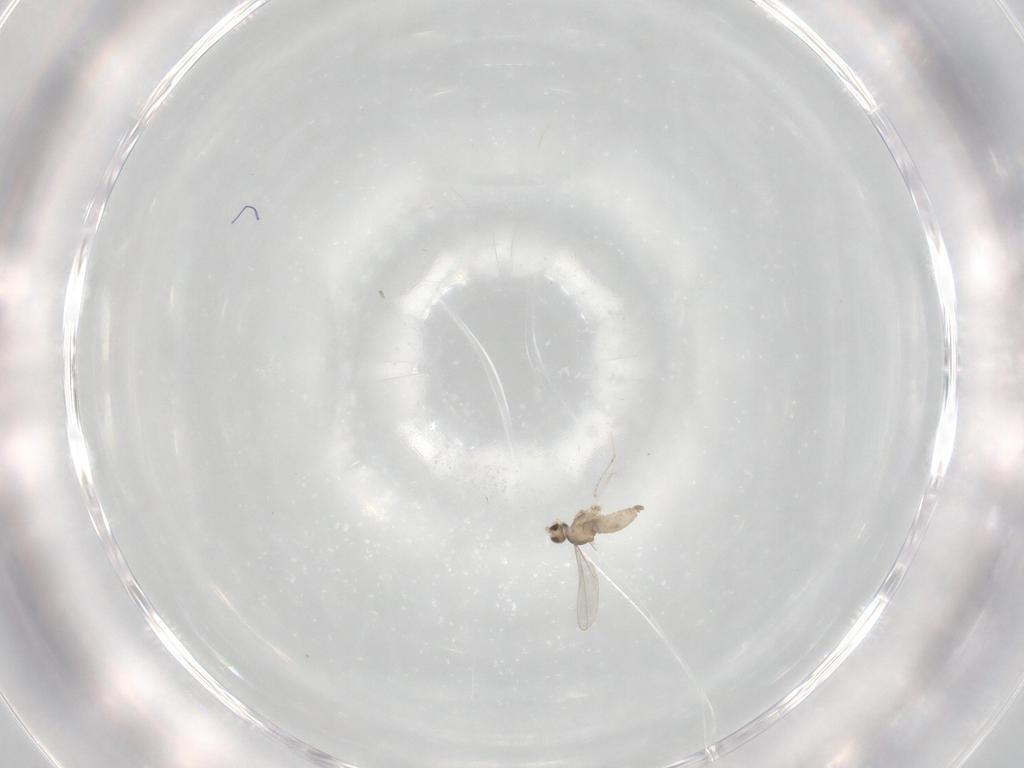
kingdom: Animalia
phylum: Arthropoda
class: Insecta
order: Diptera
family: Cecidomyiidae
